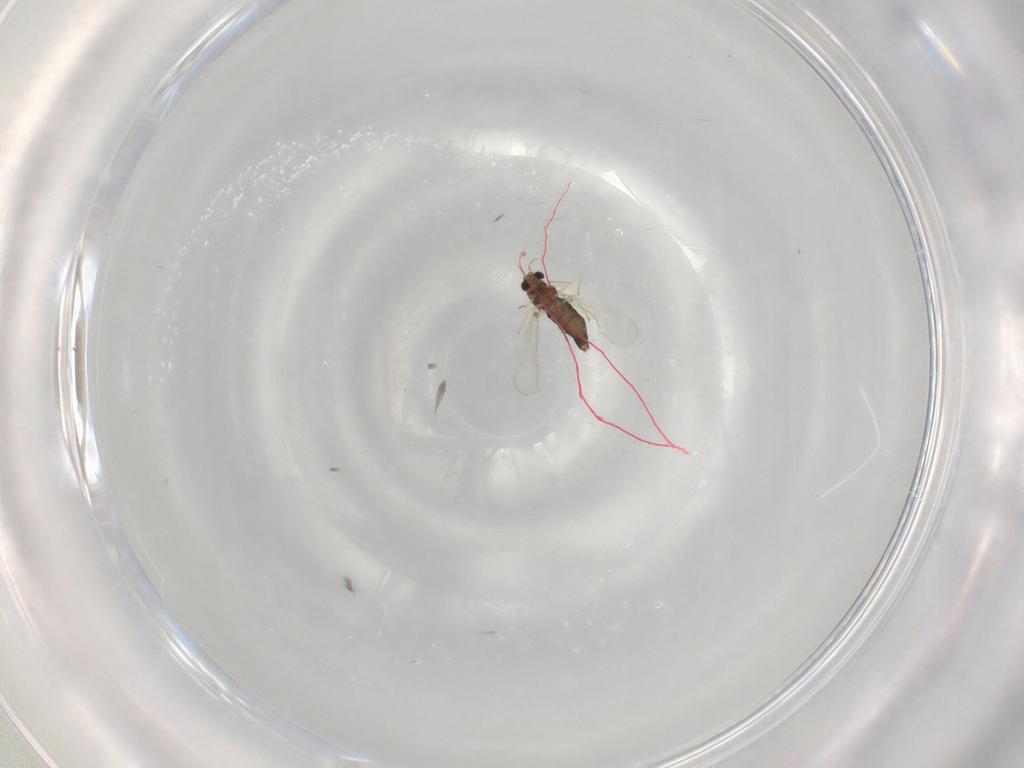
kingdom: Animalia
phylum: Arthropoda
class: Insecta
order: Diptera
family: Chironomidae
